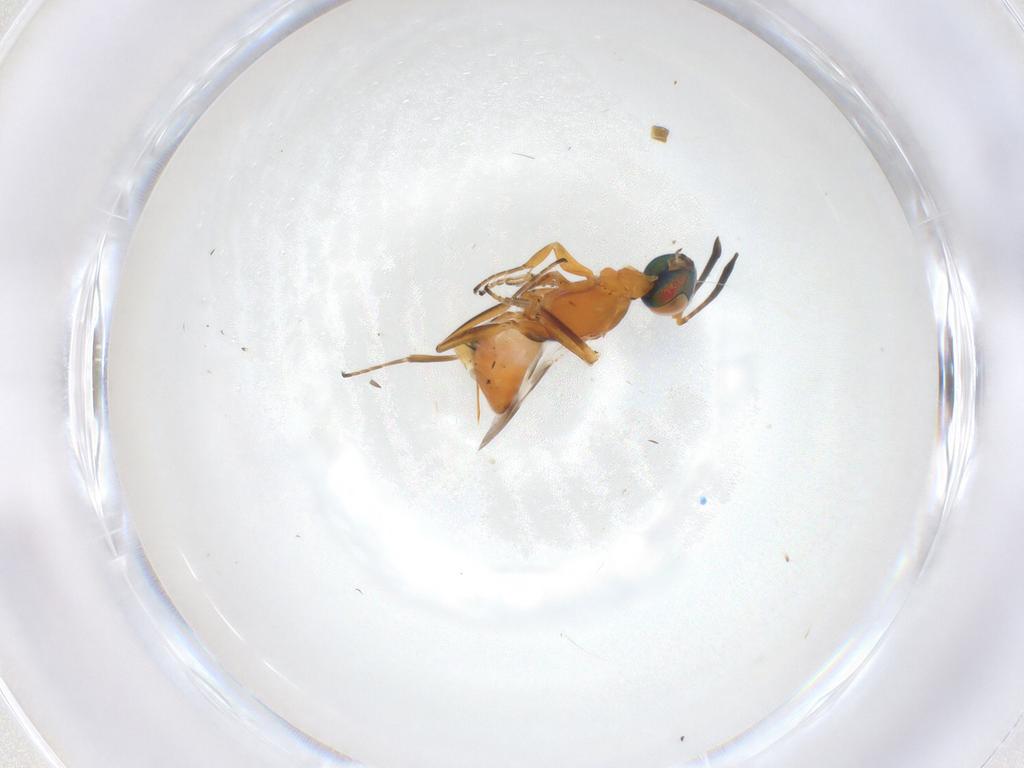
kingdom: Animalia
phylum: Arthropoda
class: Insecta
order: Hymenoptera
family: Eupelmidae
